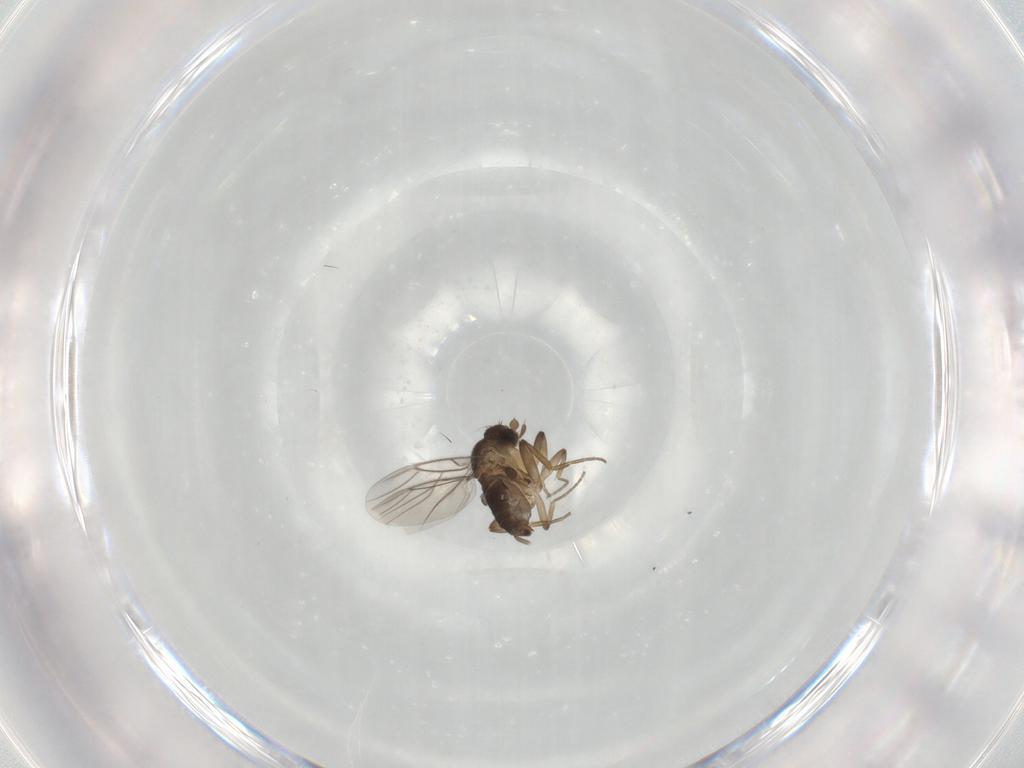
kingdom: Animalia
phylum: Arthropoda
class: Insecta
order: Diptera
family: Phoridae
